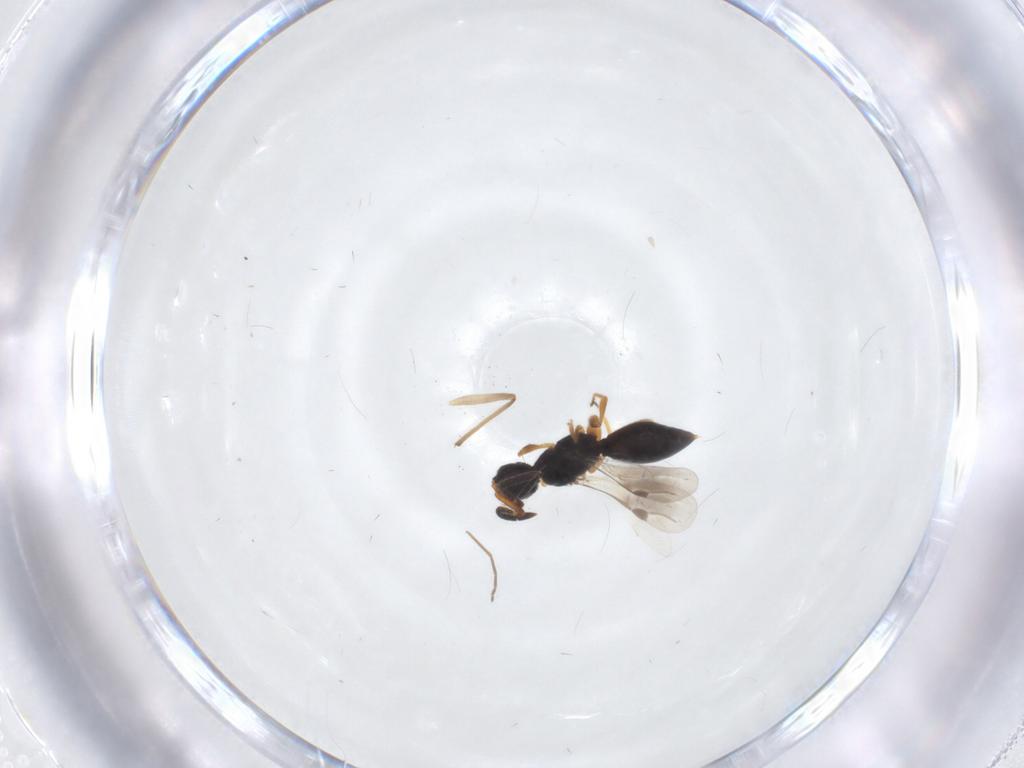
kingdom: Animalia
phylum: Arthropoda
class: Insecta
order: Diptera
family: Chironomidae
